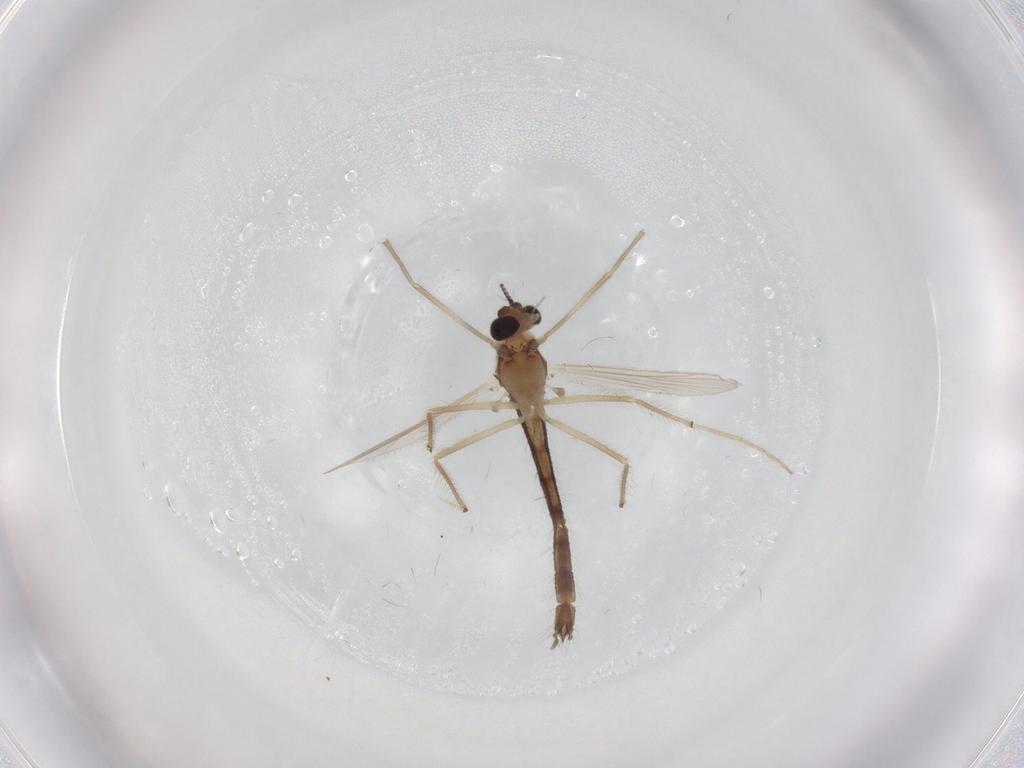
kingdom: Animalia
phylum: Arthropoda
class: Insecta
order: Diptera
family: Chironomidae
